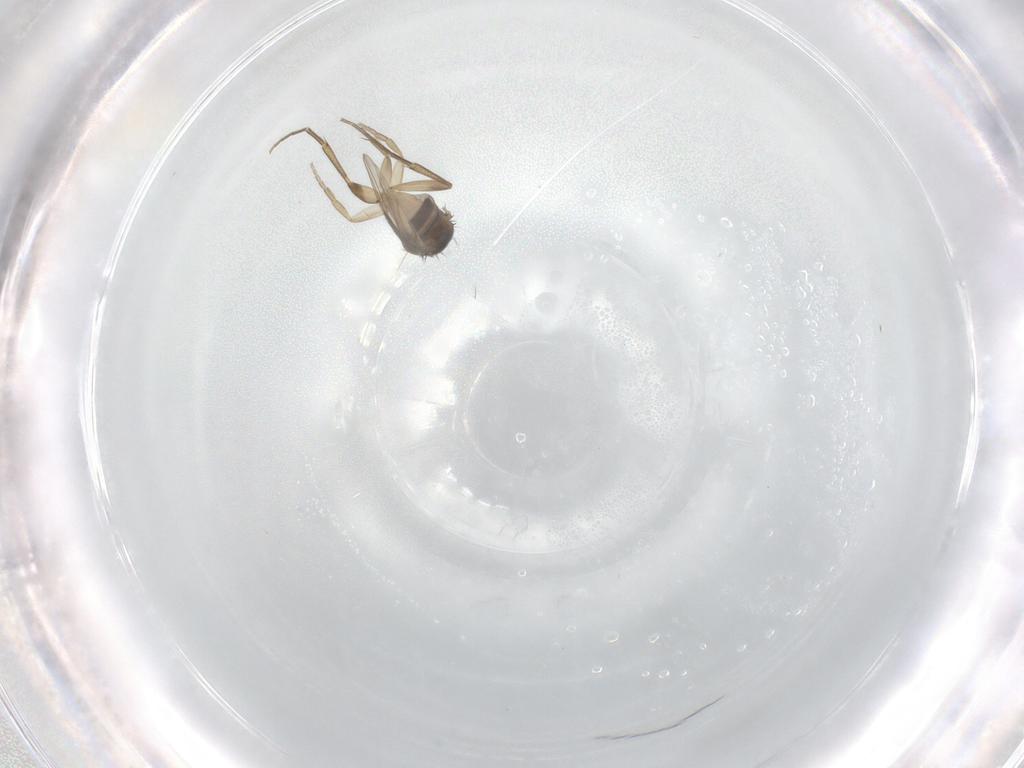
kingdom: Animalia
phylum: Arthropoda
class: Insecta
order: Diptera
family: Phoridae
